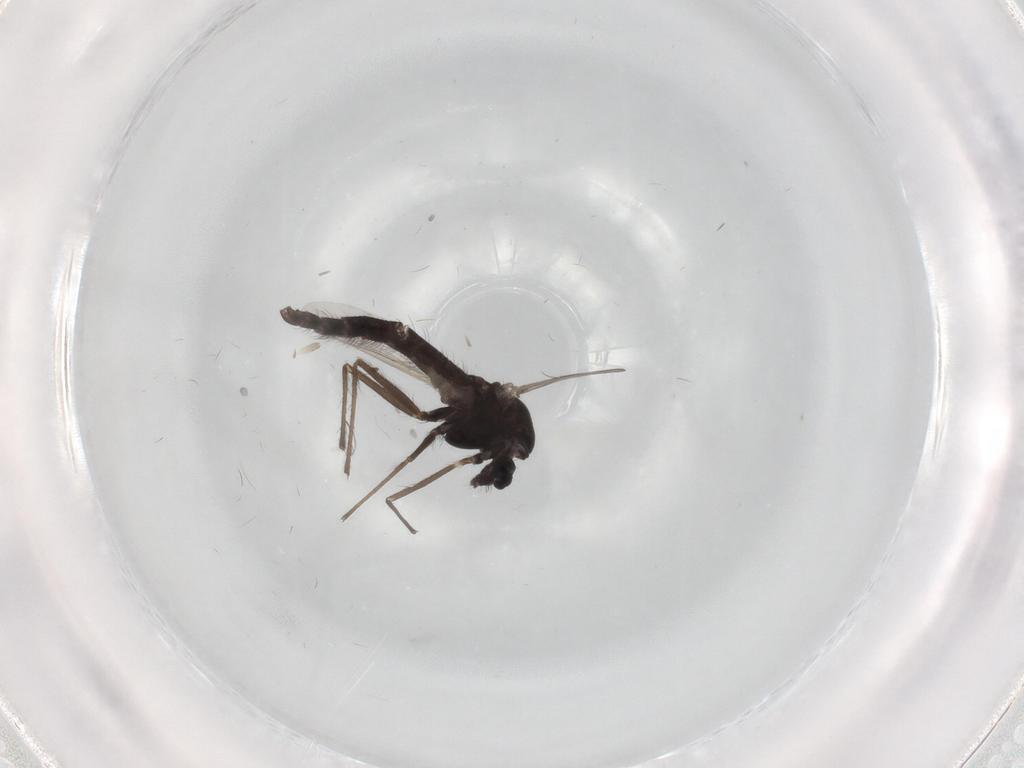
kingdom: Animalia
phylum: Arthropoda
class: Insecta
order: Diptera
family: Chironomidae
